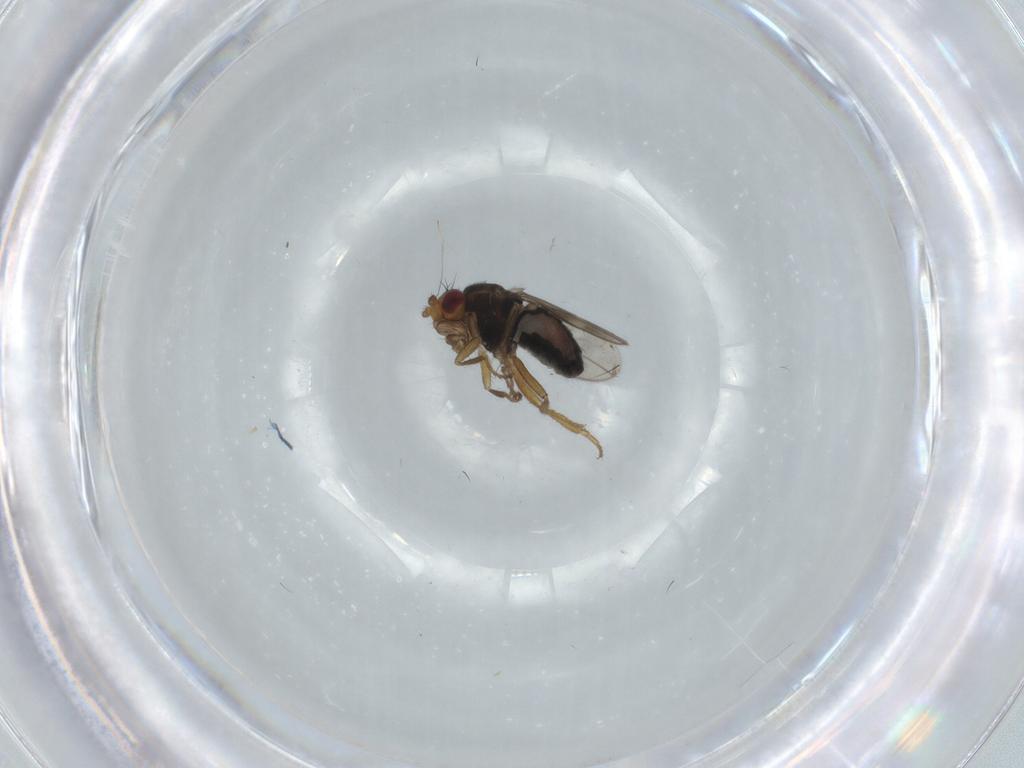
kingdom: Animalia
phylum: Arthropoda
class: Insecta
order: Diptera
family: Sphaeroceridae
